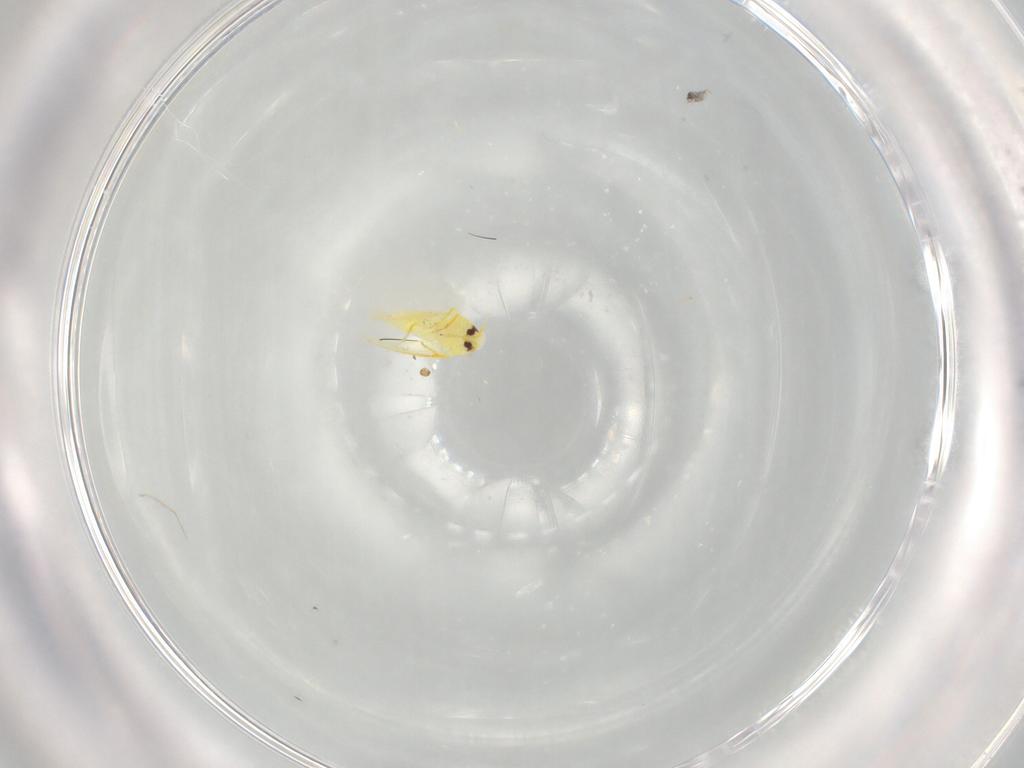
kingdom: Animalia
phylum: Arthropoda
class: Insecta
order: Hemiptera
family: Aleyrodidae
